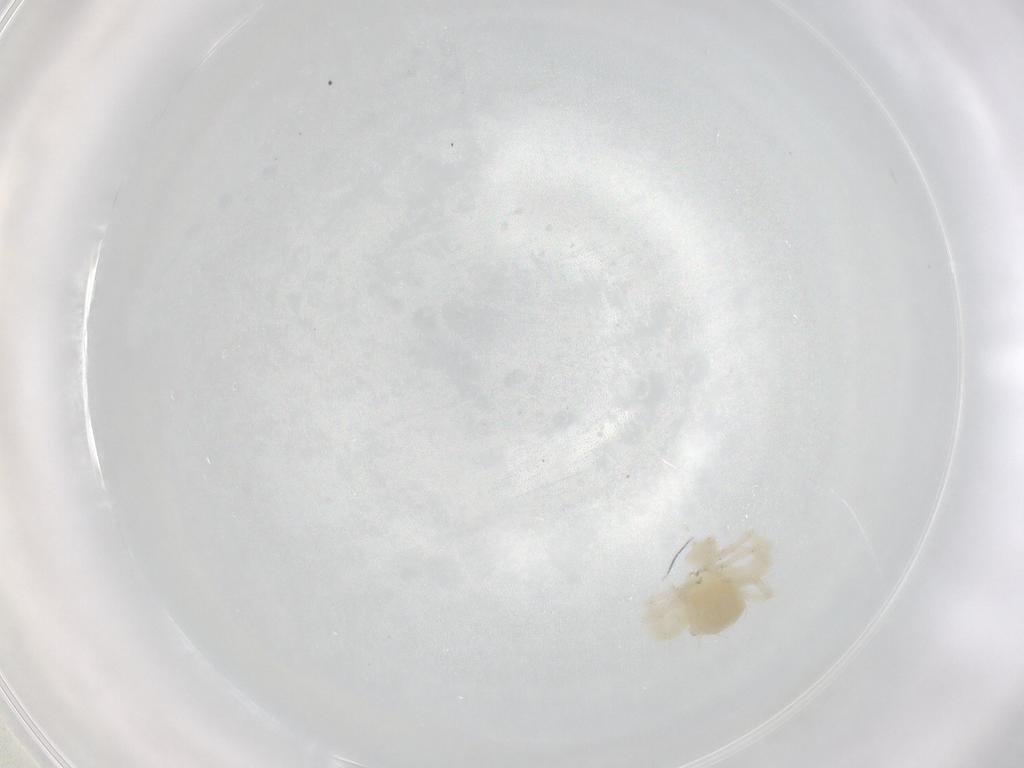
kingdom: Animalia
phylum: Arthropoda
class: Arachnida
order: Trombidiformes
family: Anystidae
